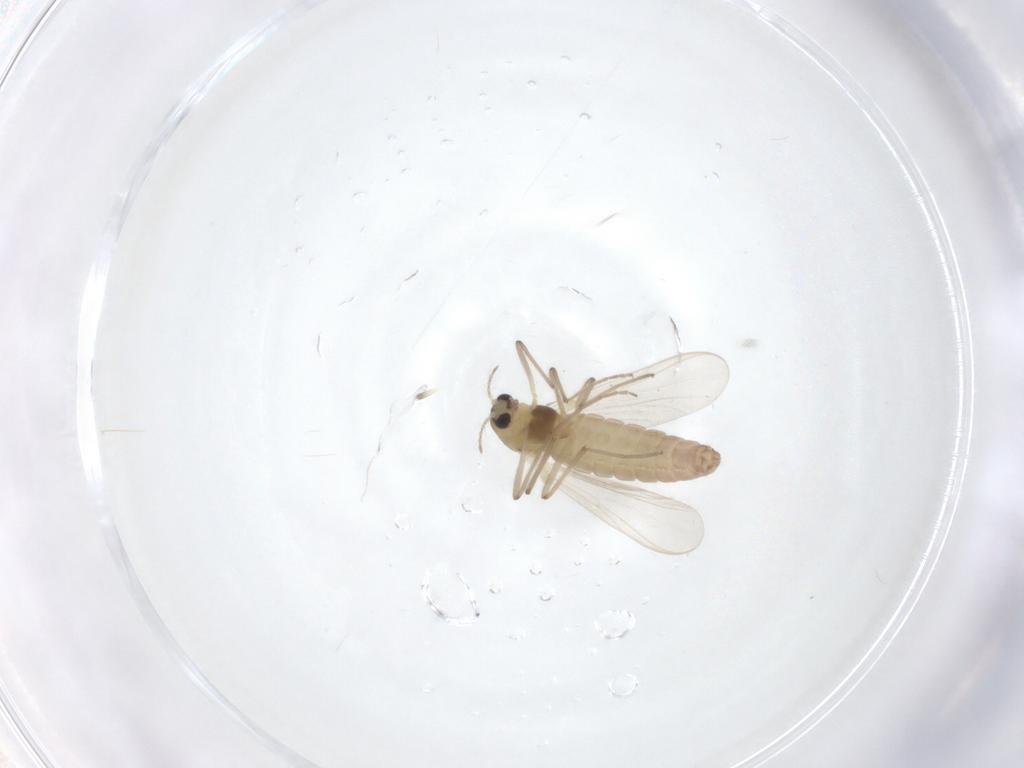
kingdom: Animalia
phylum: Arthropoda
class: Insecta
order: Diptera
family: Chironomidae
